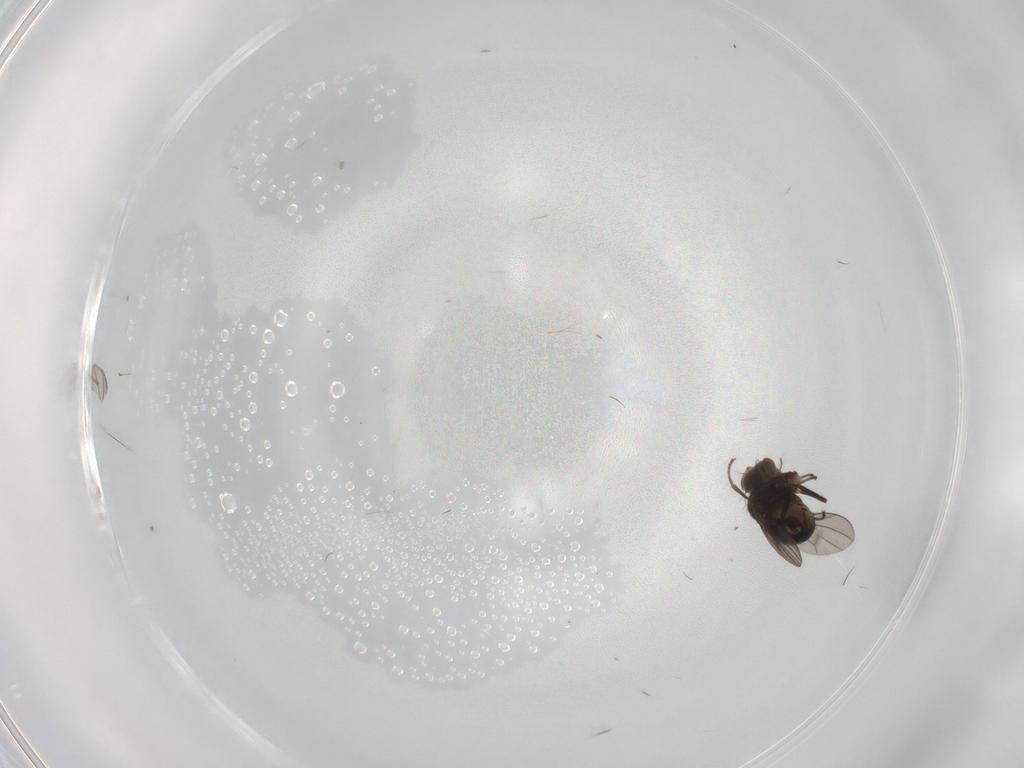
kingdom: Animalia
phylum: Arthropoda
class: Insecta
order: Diptera
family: Ephydridae
